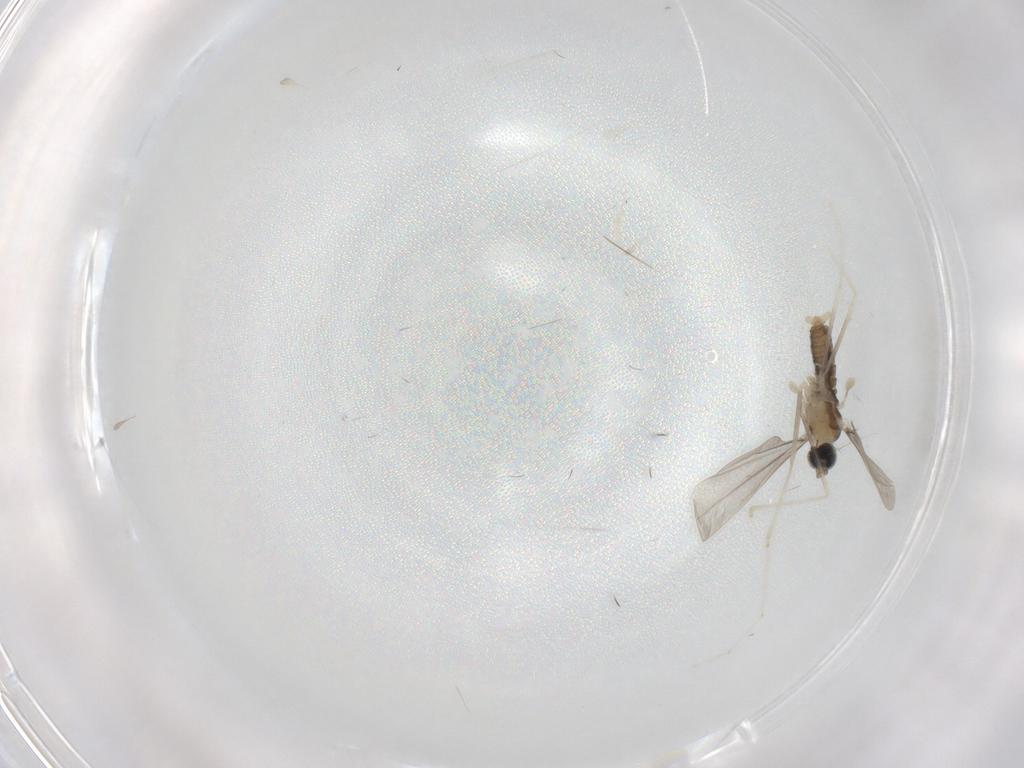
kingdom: Animalia
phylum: Arthropoda
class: Insecta
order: Diptera
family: Cecidomyiidae
